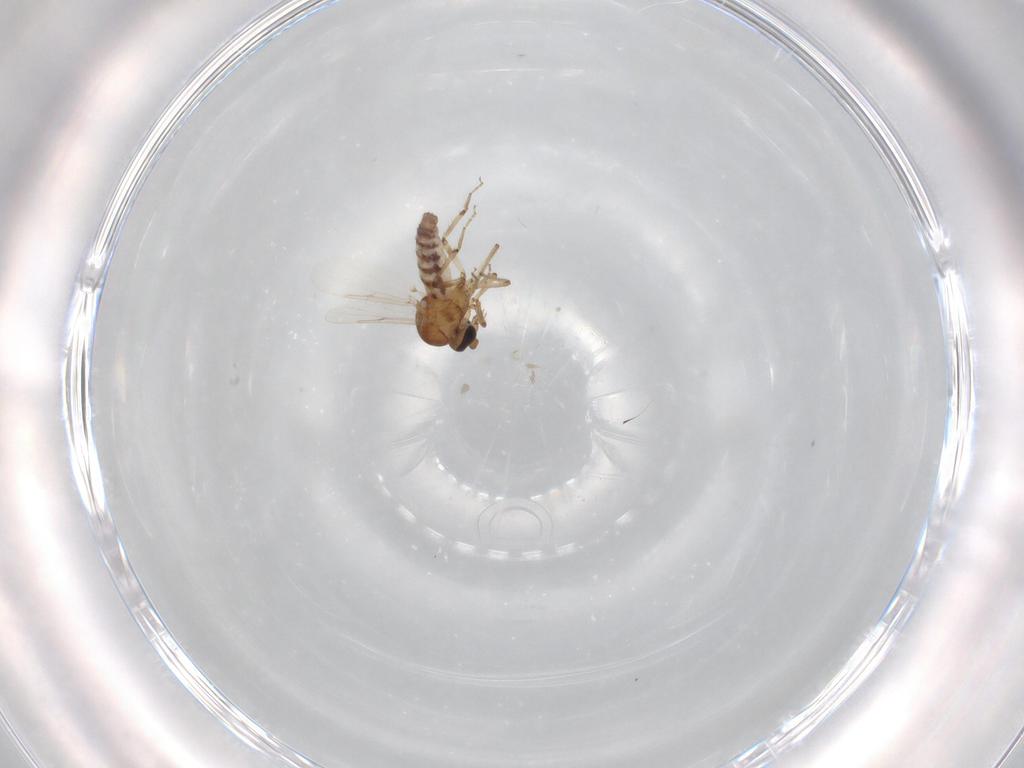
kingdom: Animalia
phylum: Arthropoda
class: Insecta
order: Diptera
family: Ceratopogonidae
